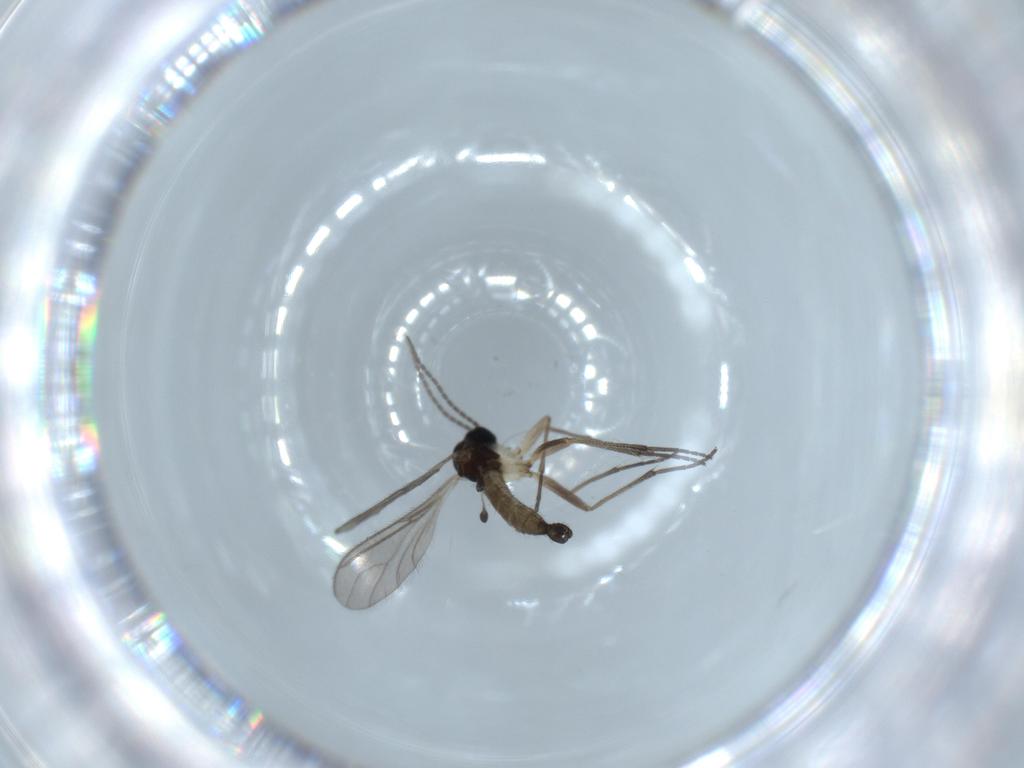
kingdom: Animalia
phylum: Arthropoda
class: Insecta
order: Diptera
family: Sciaridae
